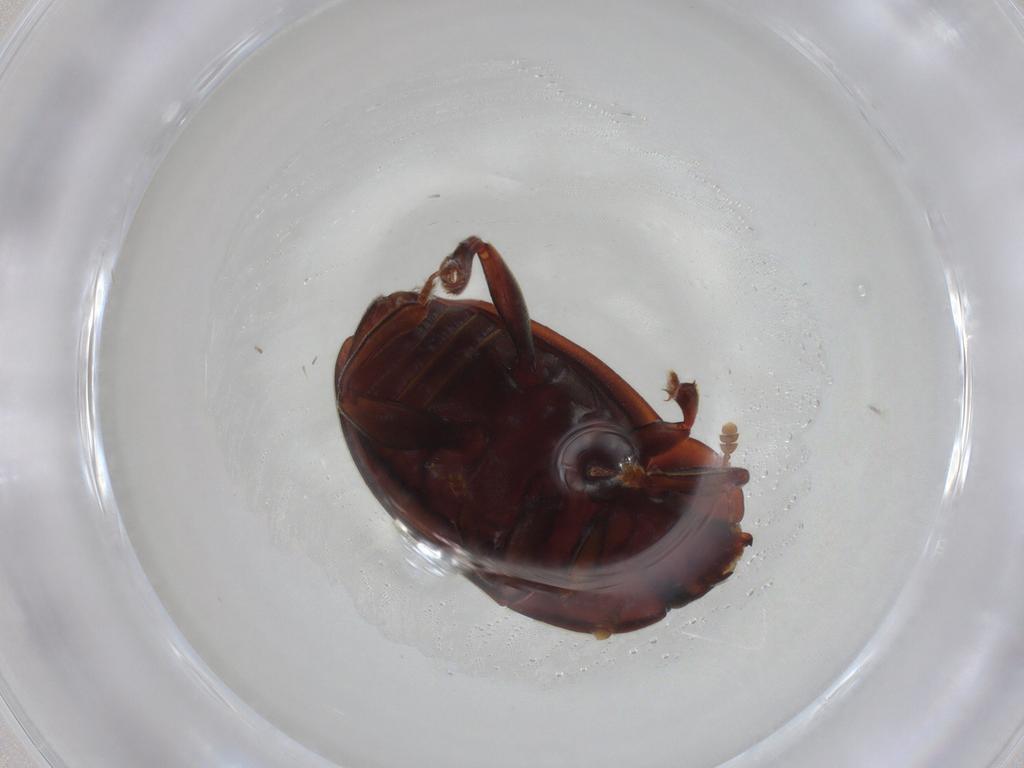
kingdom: Animalia
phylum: Arthropoda
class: Insecta
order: Coleoptera
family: Nitidulidae
